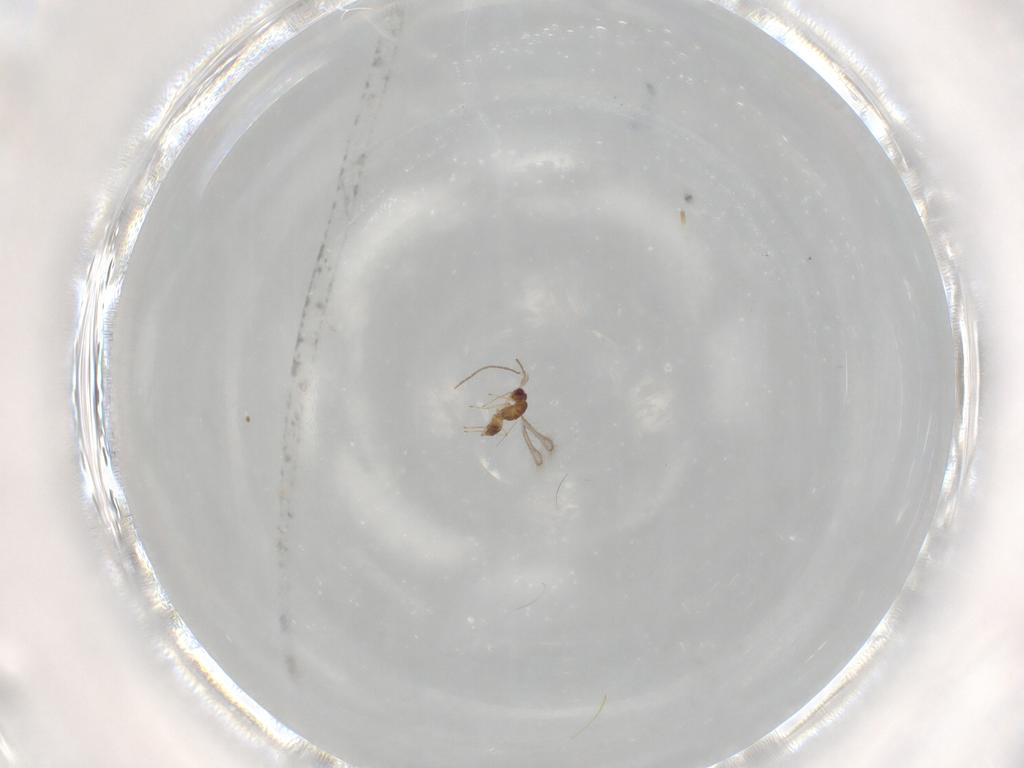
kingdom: Animalia
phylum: Arthropoda
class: Insecta
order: Hymenoptera
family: Mymaridae
